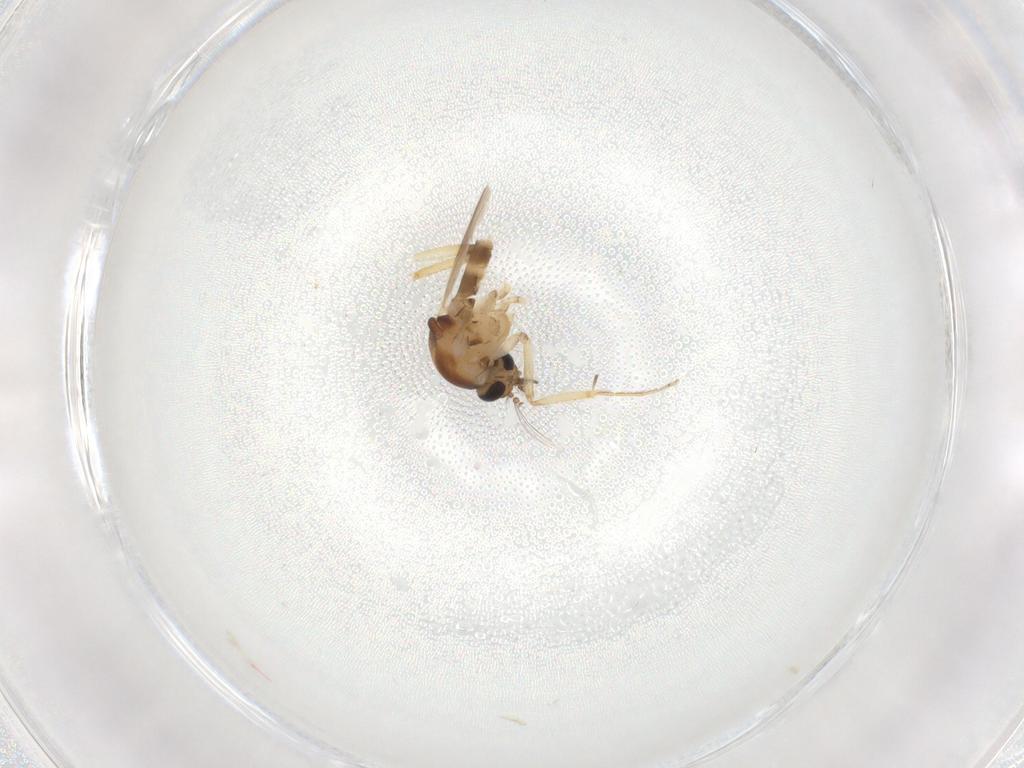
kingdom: Animalia
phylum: Arthropoda
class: Insecta
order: Diptera
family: Ceratopogonidae
